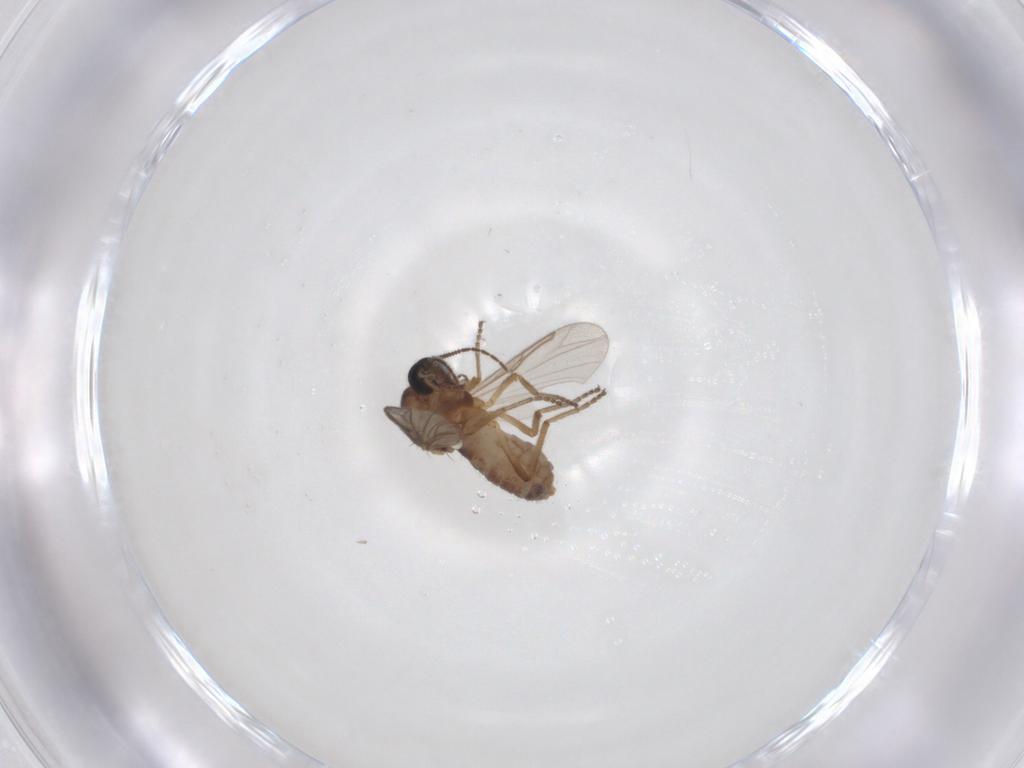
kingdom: Animalia
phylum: Arthropoda
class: Insecta
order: Diptera
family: Ceratopogonidae
